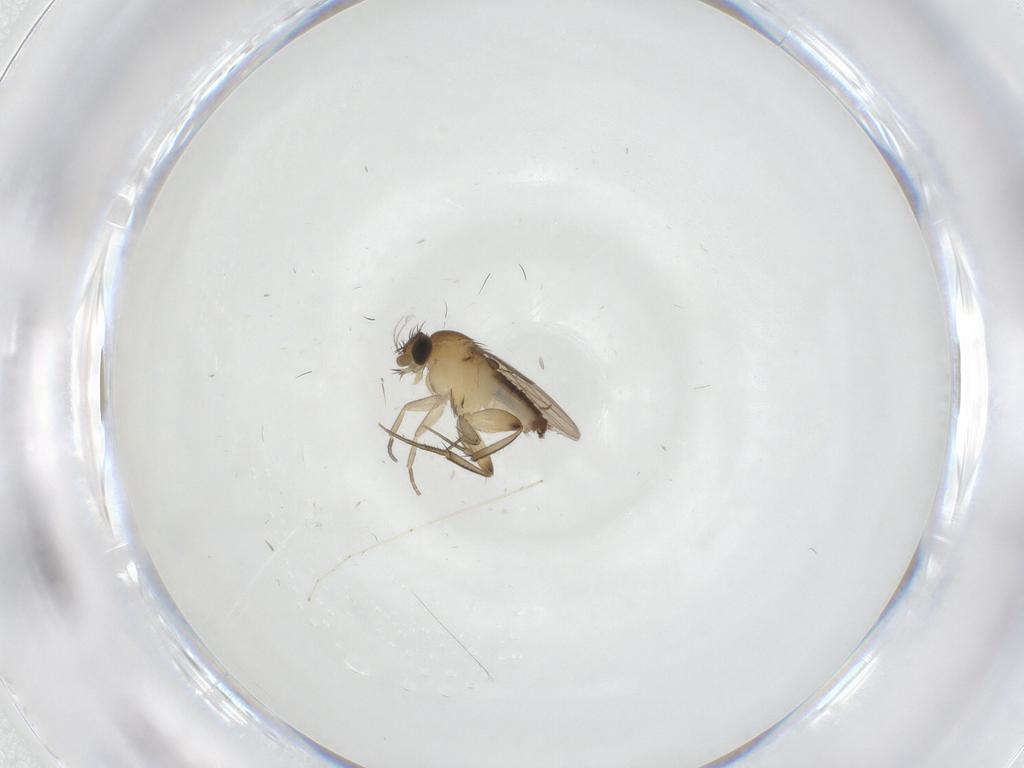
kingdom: Animalia
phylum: Arthropoda
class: Insecta
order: Diptera
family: Phoridae
